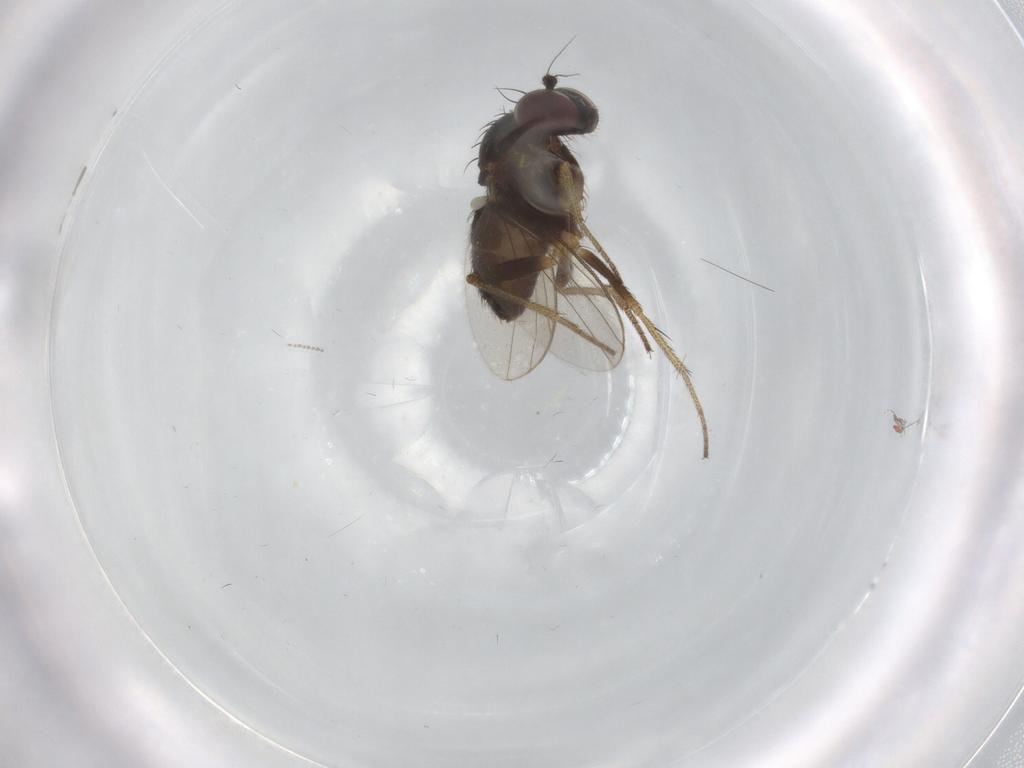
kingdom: Animalia
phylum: Arthropoda
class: Insecta
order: Diptera
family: Dolichopodidae
